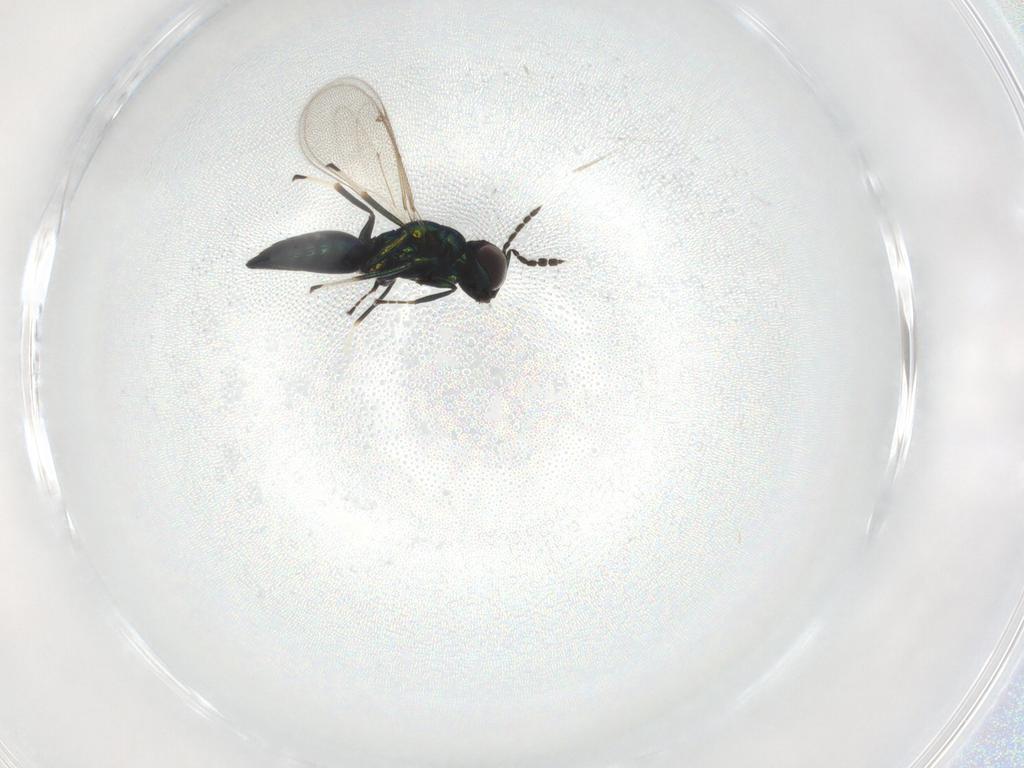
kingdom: Animalia
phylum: Arthropoda
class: Insecta
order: Hymenoptera
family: Eulophidae
